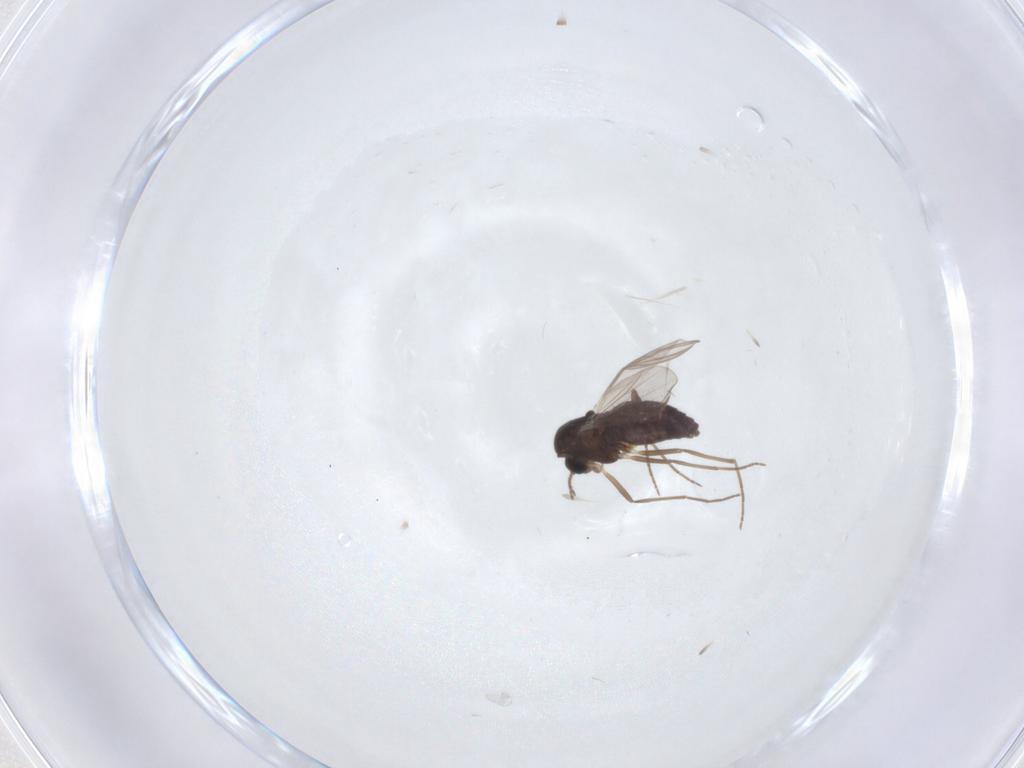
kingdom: Animalia
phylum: Arthropoda
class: Insecta
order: Diptera
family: Chironomidae
